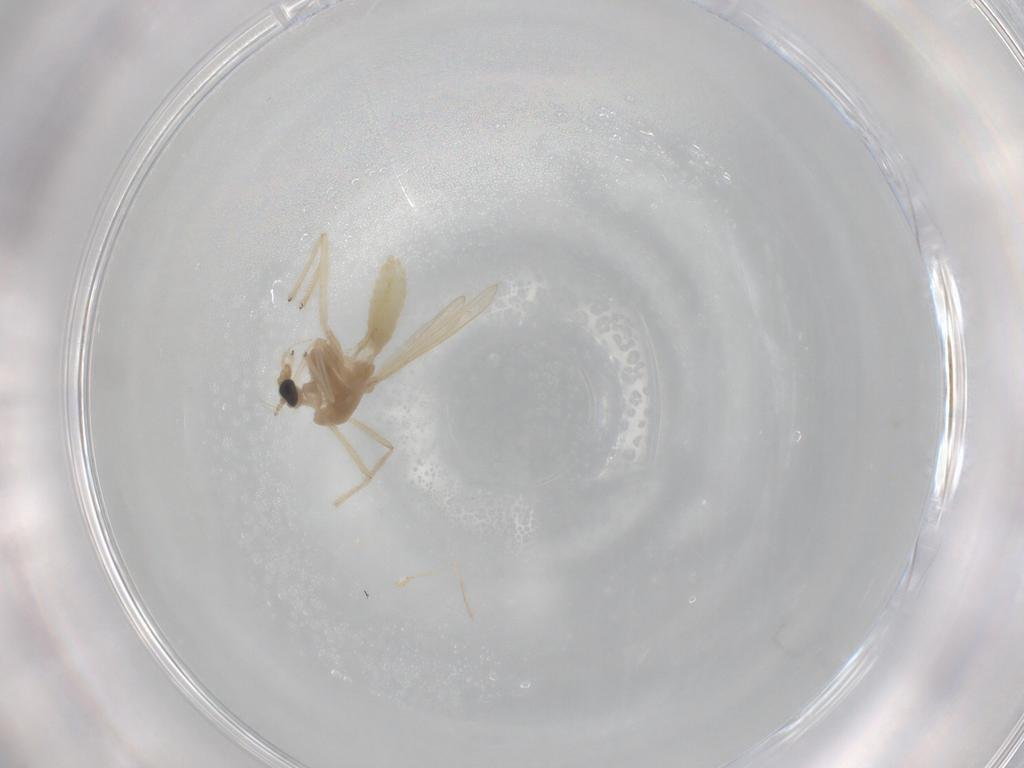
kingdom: Animalia
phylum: Arthropoda
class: Insecta
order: Diptera
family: Chironomidae
